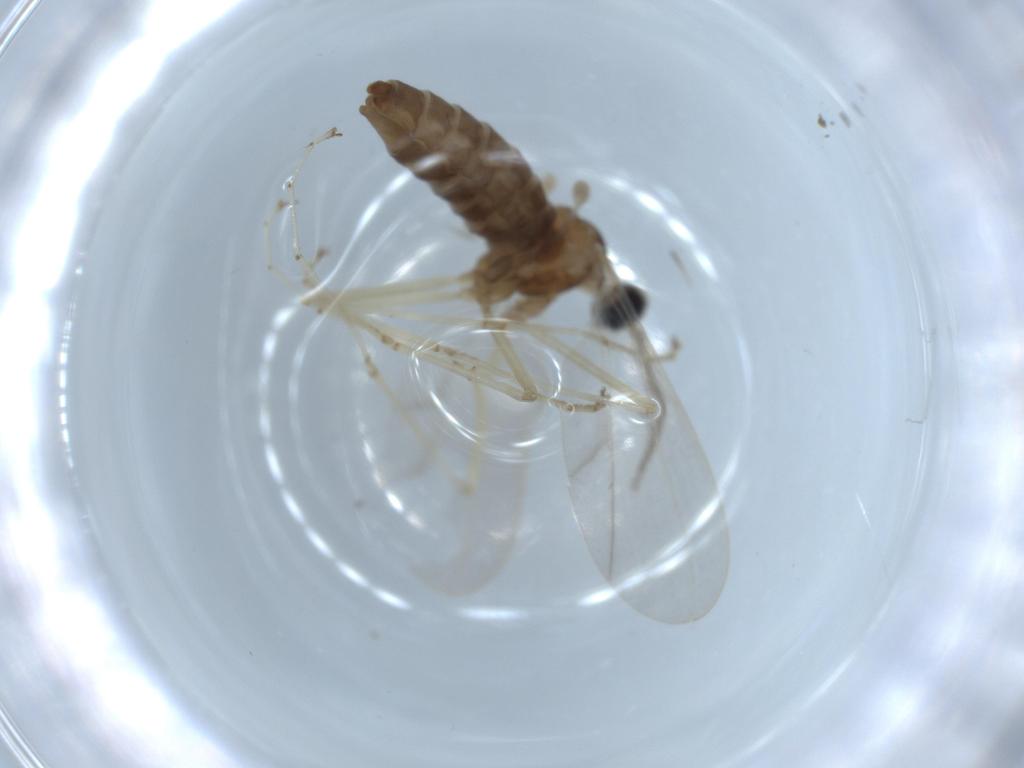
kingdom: Animalia
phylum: Arthropoda
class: Insecta
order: Diptera
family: Cecidomyiidae
